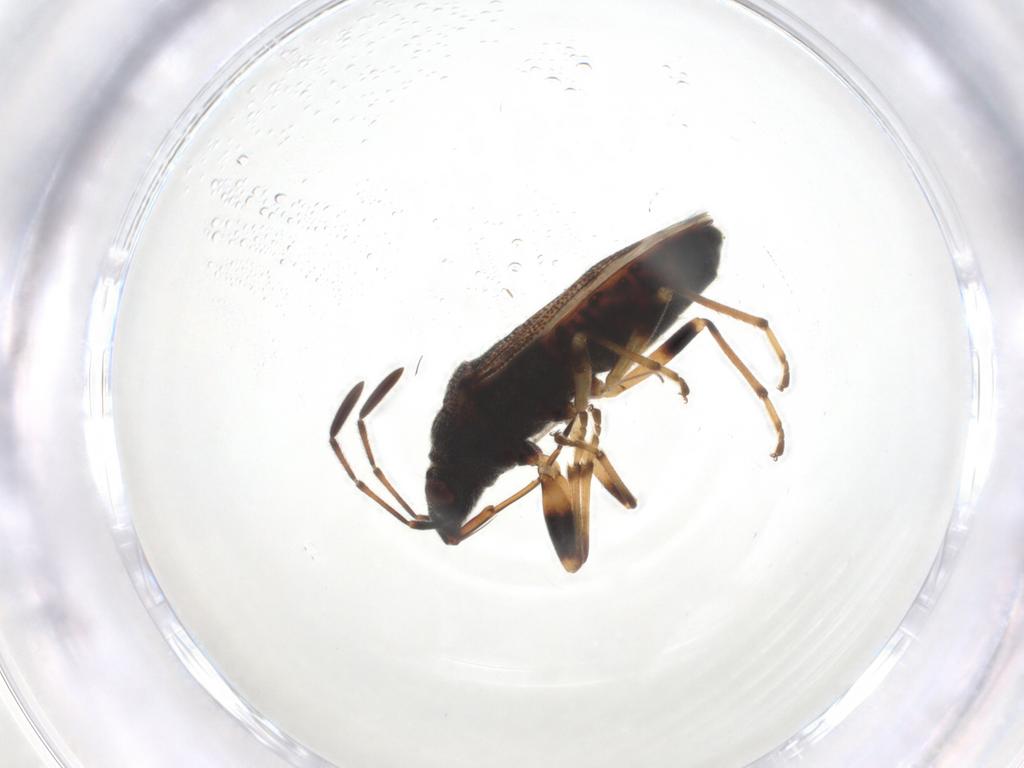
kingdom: Animalia
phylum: Arthropoda
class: Insecta
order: Hemiptera
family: Rhyparochromidae
